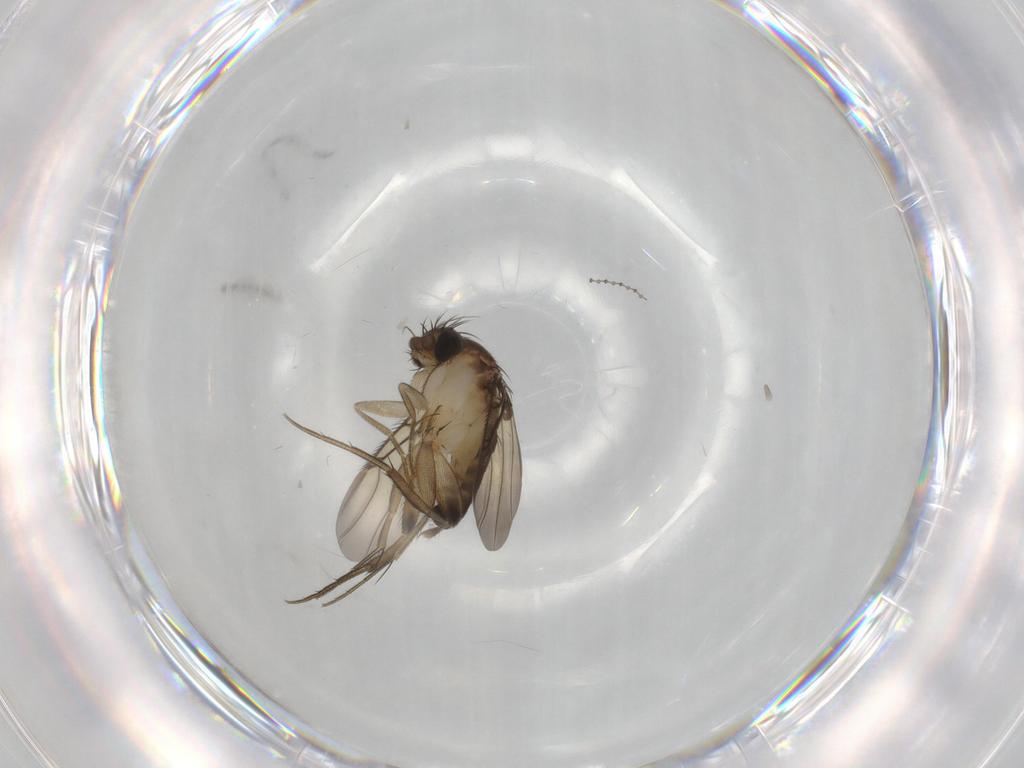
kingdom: Animalia
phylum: Arthropoda
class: Insecta
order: Diptera
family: Phoridae
